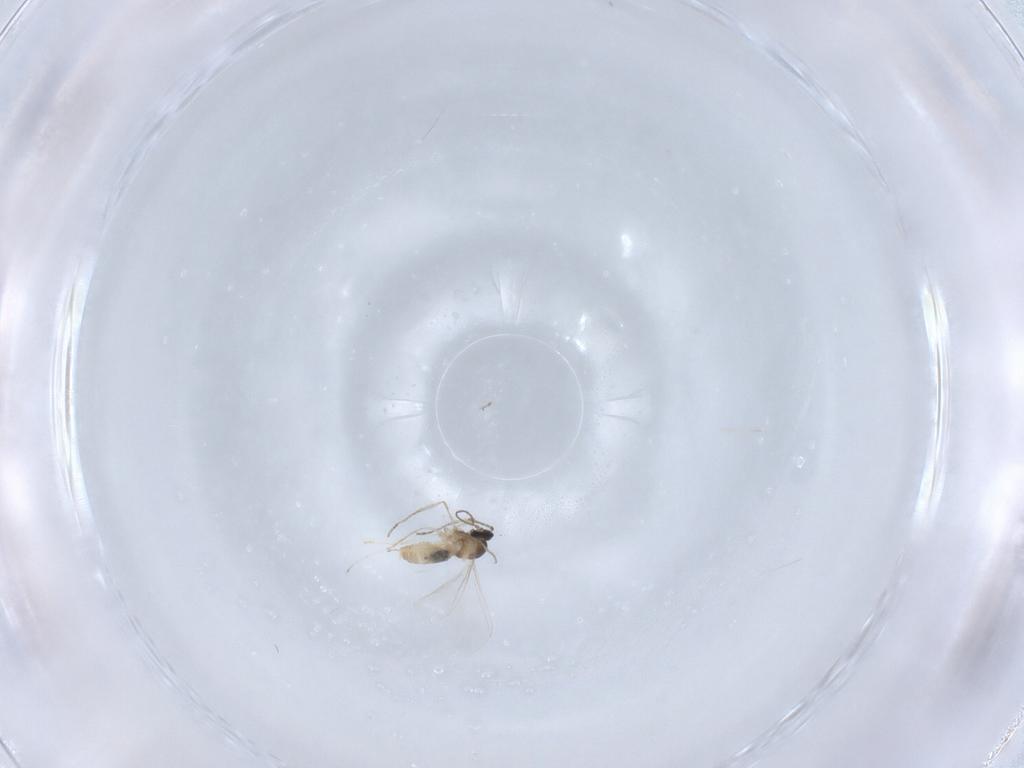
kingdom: Animalia
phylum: Arthropoda
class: Insecta
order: Diptera
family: Cecidomyiidae
